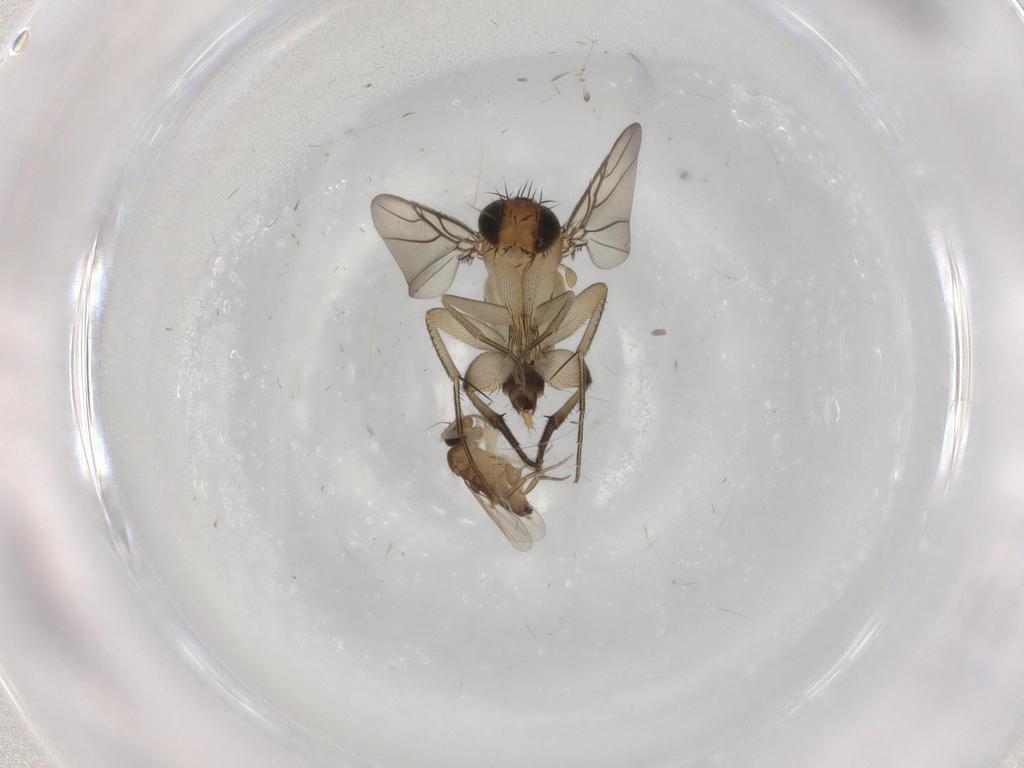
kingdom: Animalia
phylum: Arthropoda
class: Insecta
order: Diptera
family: Phoridae
